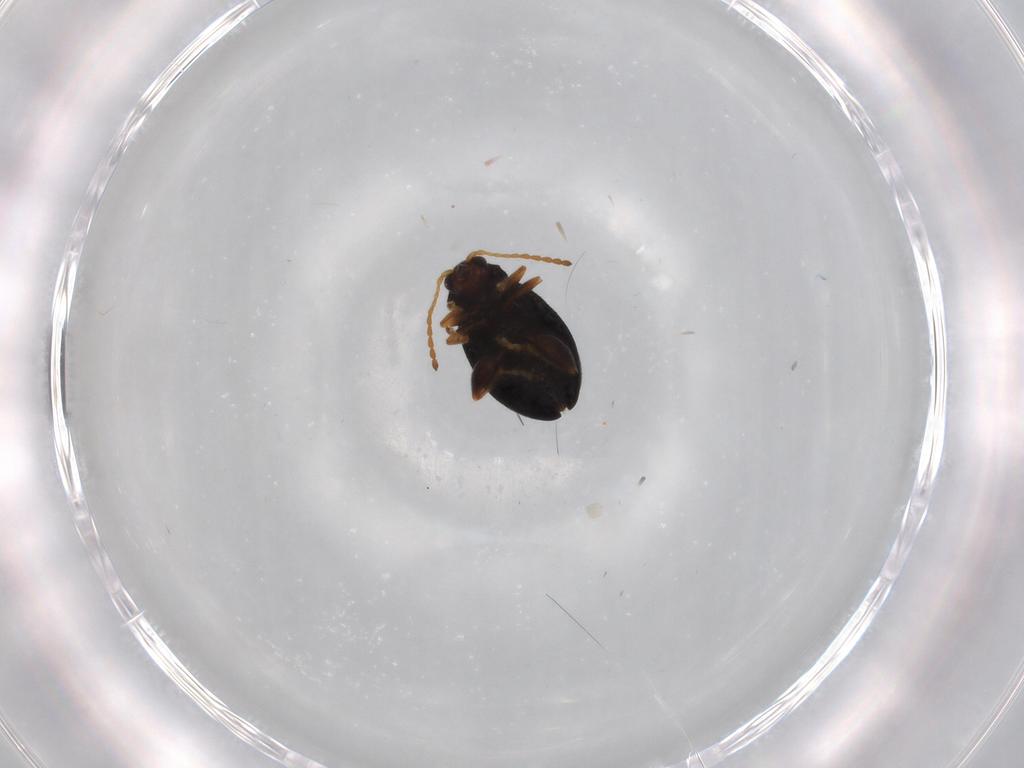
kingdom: Animalia
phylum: Arthropoda
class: Insecta
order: Coleoptera
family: Chrysomelidae
